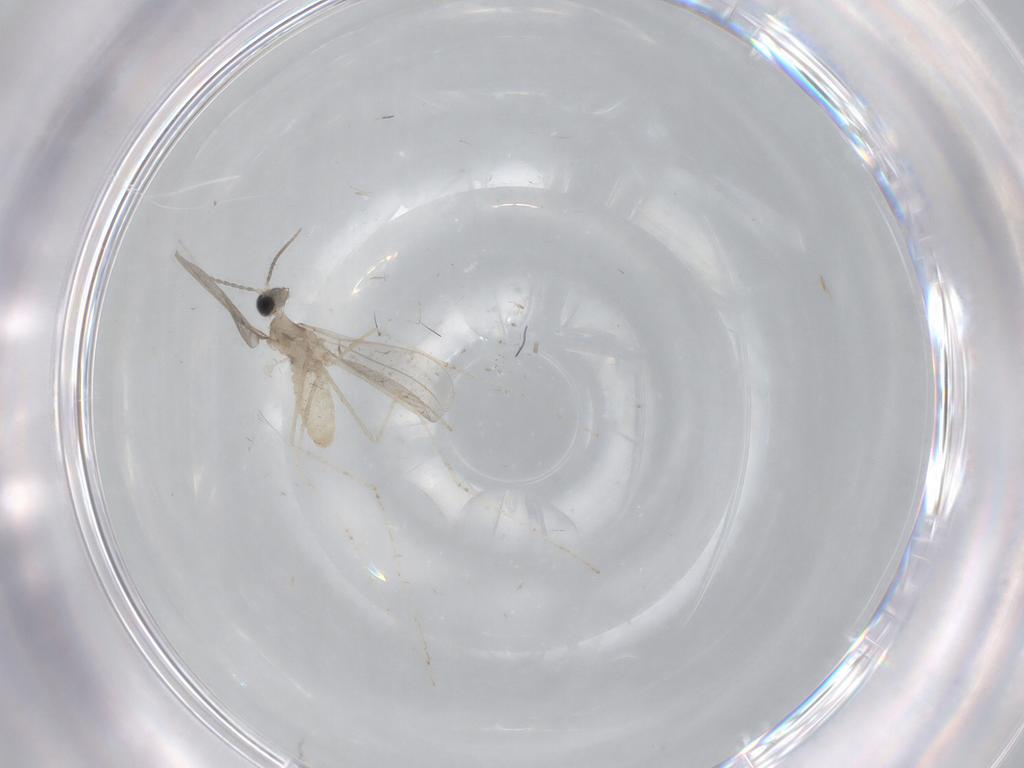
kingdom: Animalia
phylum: Arthropoda
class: Insecta
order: Diptera
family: Cecidomyiidae
